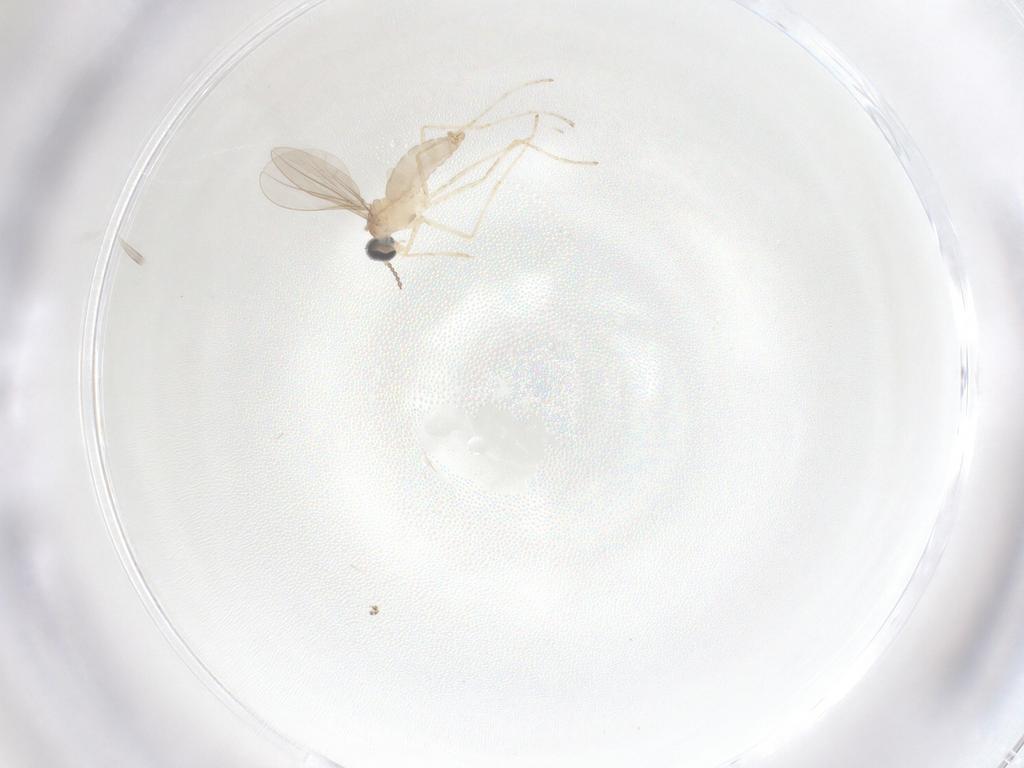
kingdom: Animalia
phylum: Arthropoda
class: Insecta
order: Diptera
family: Cecidomyiidae
